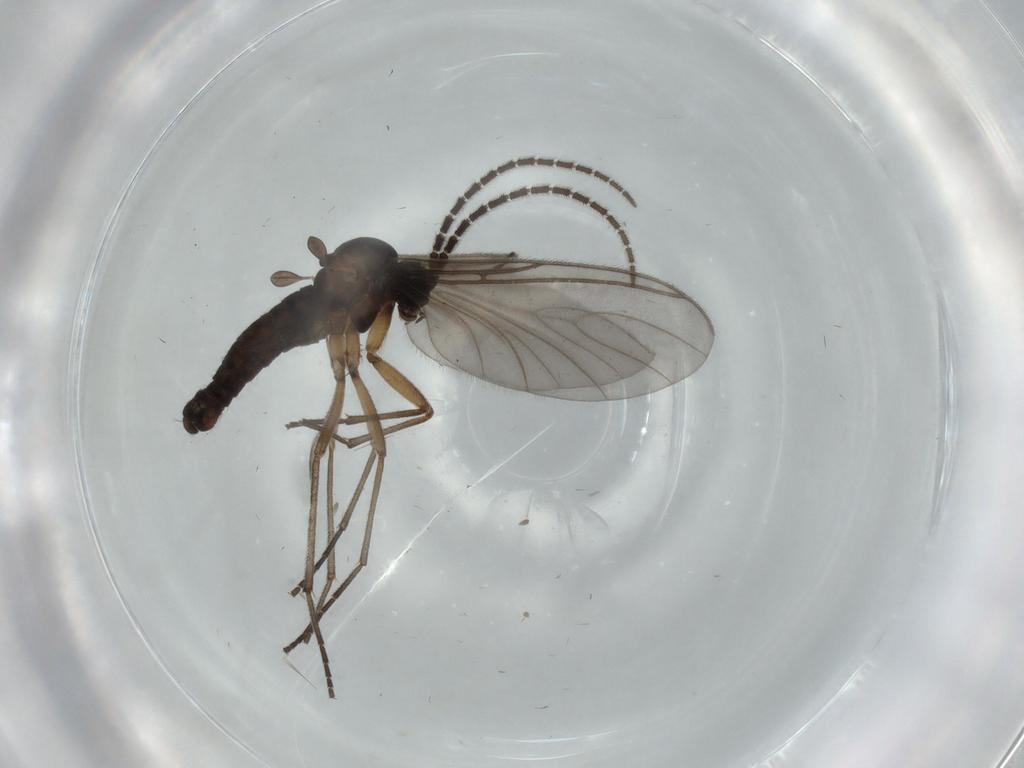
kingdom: Animalia
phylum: Arthropoda
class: Insecta
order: Diptera
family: Sciaridae
